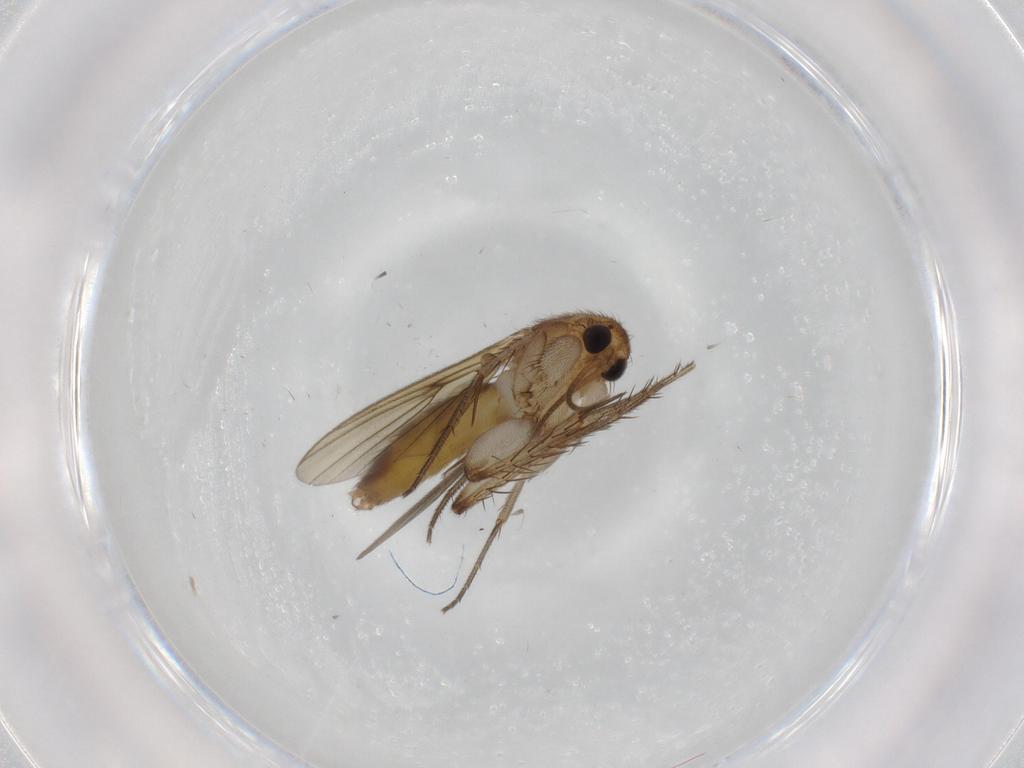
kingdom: Animalia
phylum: Arthropoda
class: Insecta
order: Diptera
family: Chironomidae
